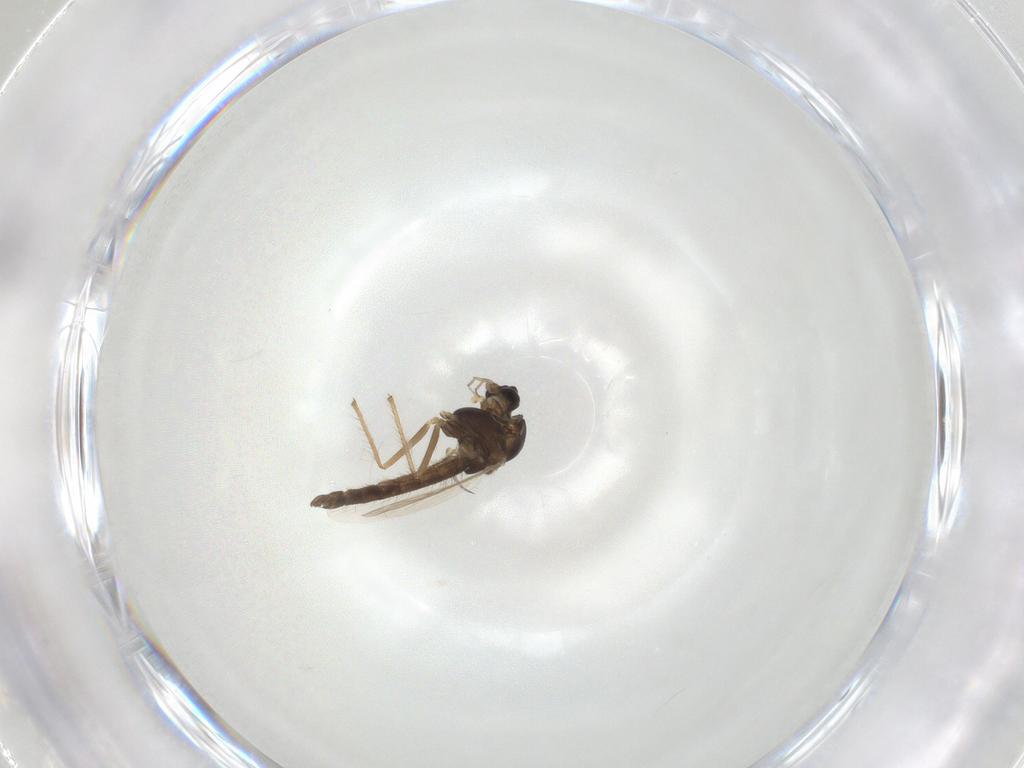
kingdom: Animalia
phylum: Arthropoda
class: Insecta
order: Diptera
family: Chironomidae
